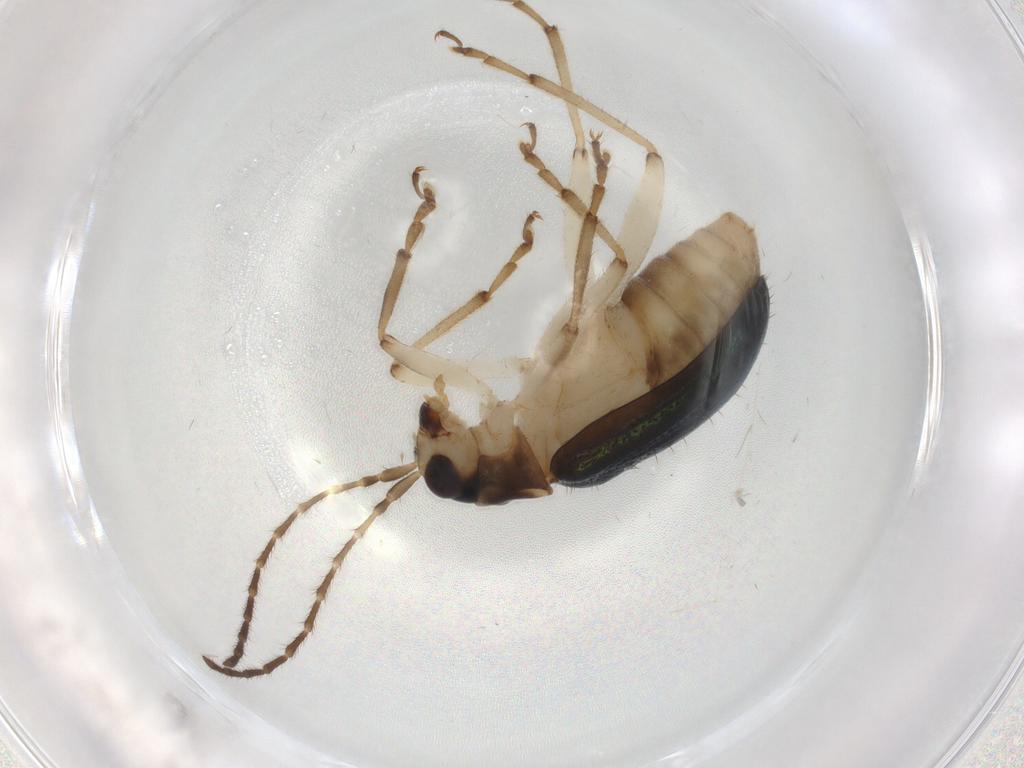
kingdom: Animalia
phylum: Arthropoda
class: Insecta
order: Coleoptera
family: Chrysomelidae
